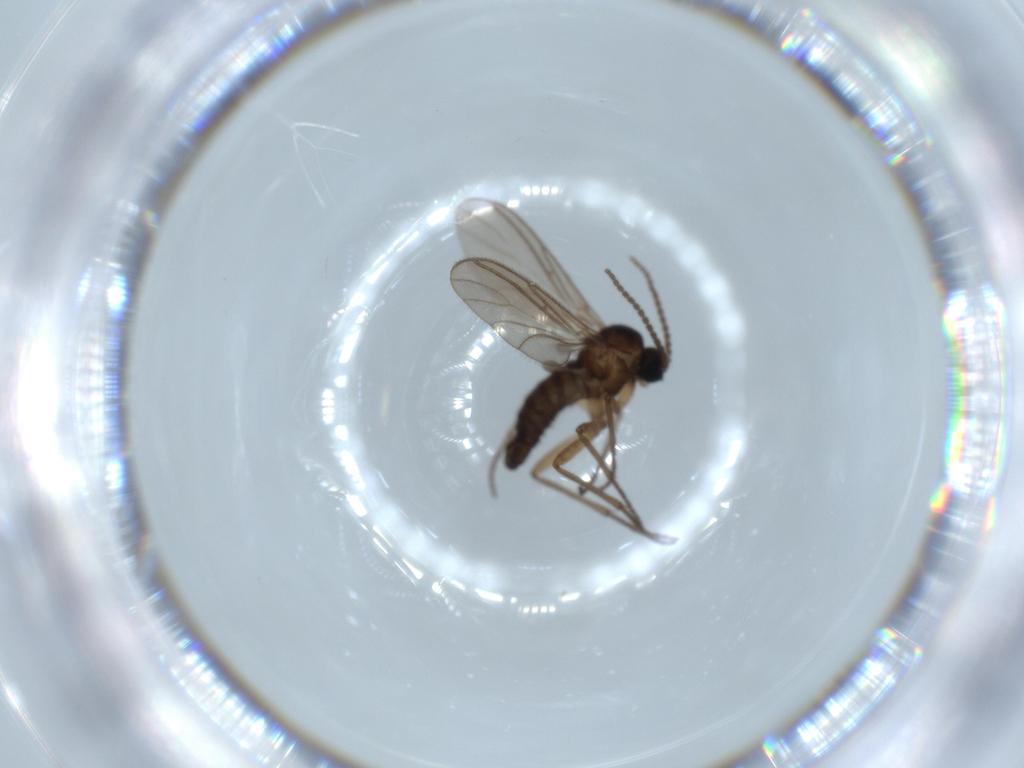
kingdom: Animalia
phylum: Arthropoda
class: Insecta
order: Diptera
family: Sciaridae
